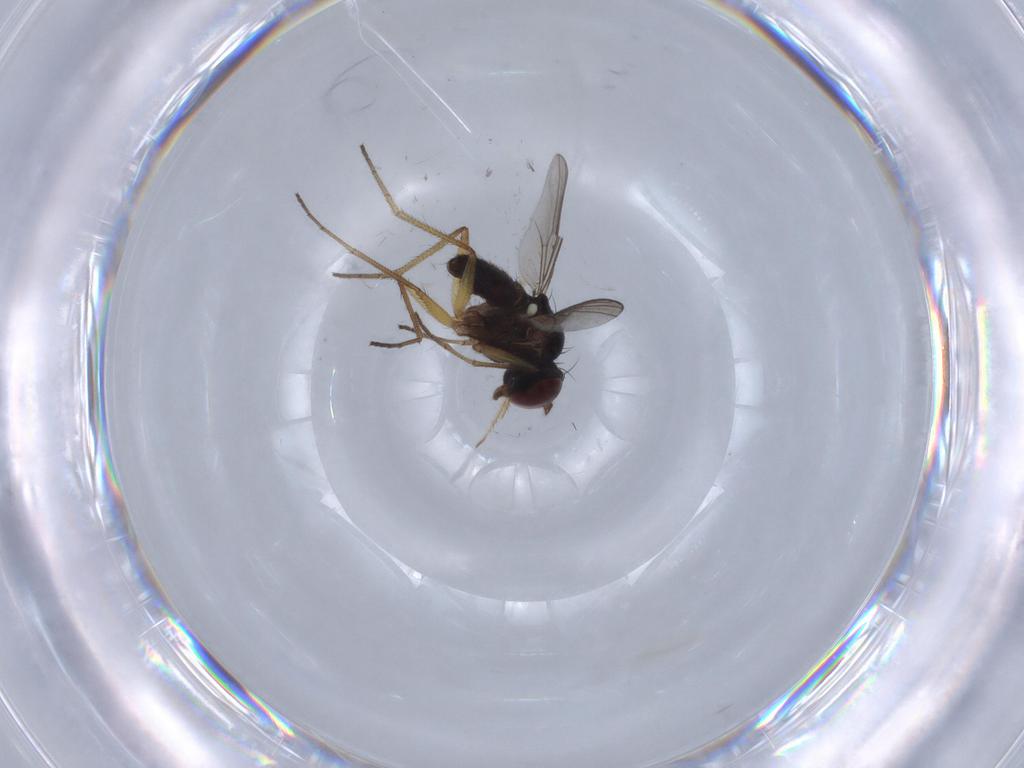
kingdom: Animalia
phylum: Arthropoda
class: Insecta
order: Diptera
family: Dolichopodidae
